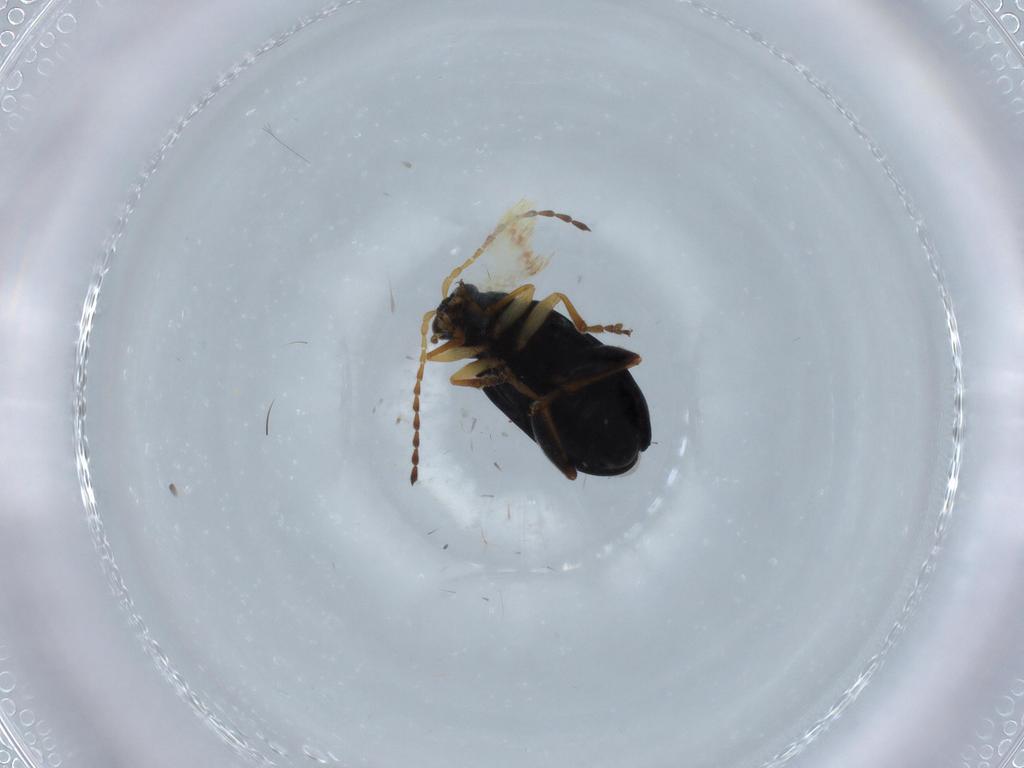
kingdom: Animalia
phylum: Arthropoda
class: Insecta
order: Coleoptera
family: Chrysomelidae
